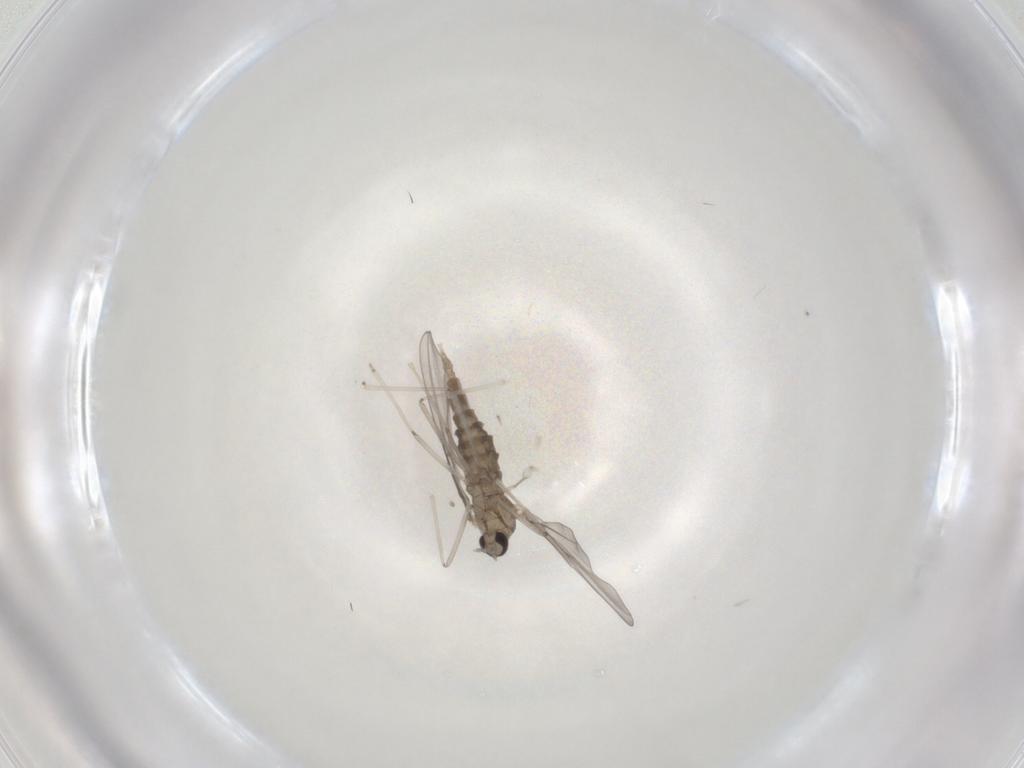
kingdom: Animalia
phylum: Arthropoda
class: Insecta
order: Diptera
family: Cecidomyiidae
